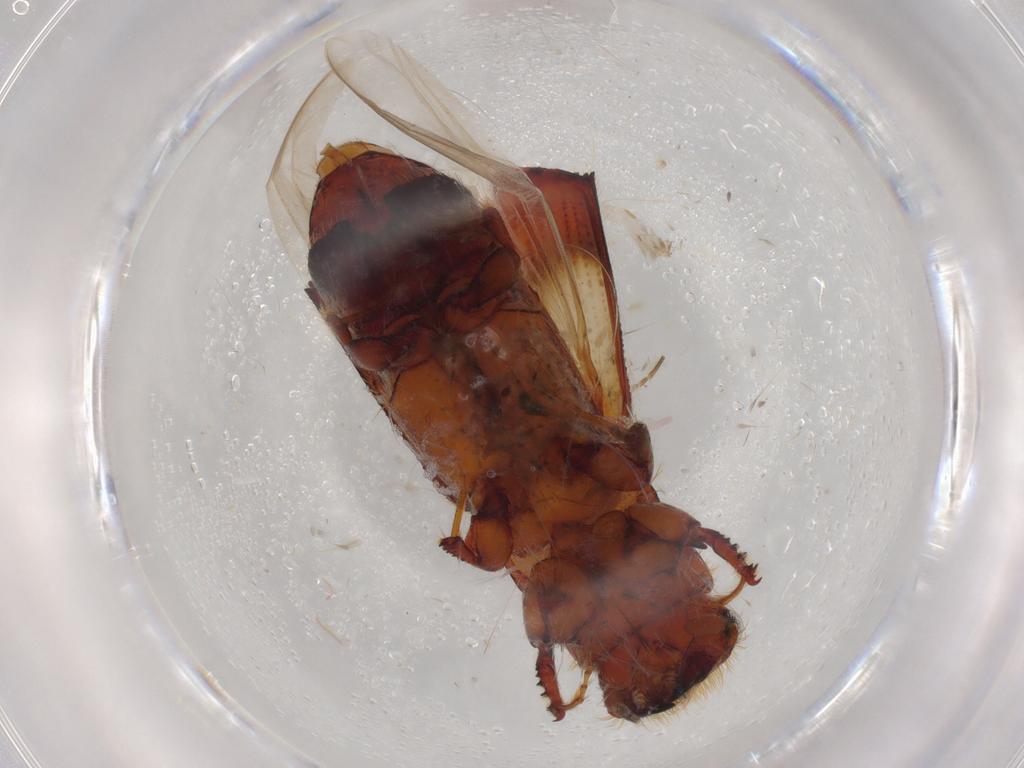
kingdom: Animalia
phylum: Arthropoda
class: Insecta
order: Coleoptera
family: Curculionidae
